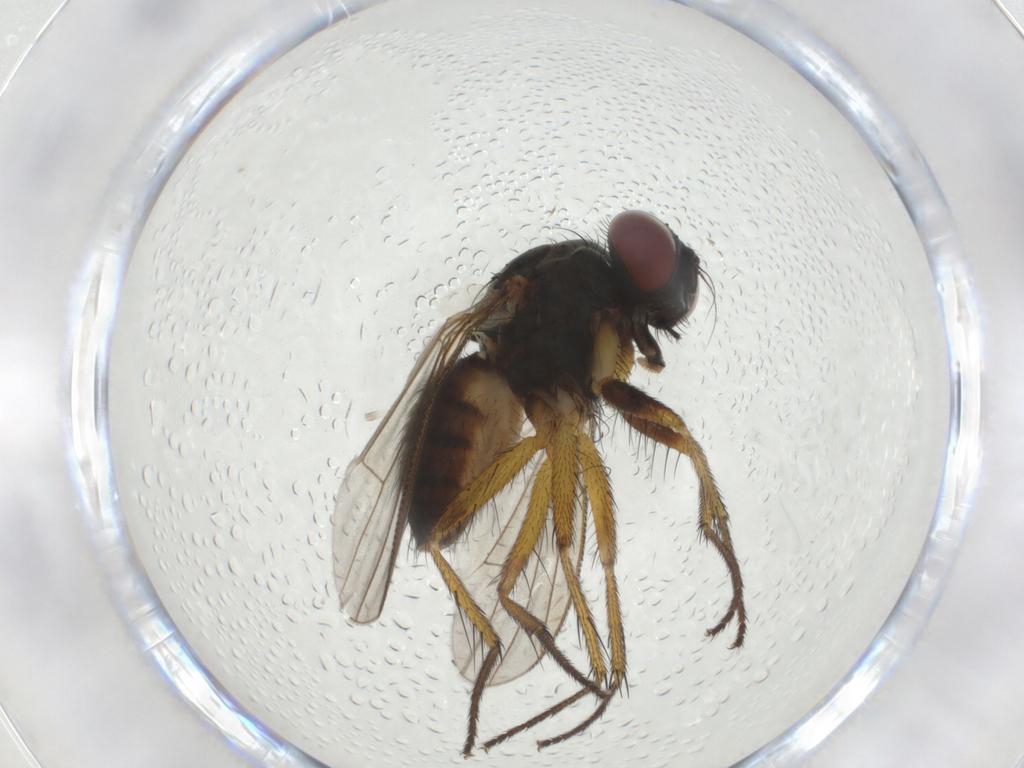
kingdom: Animalia
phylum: Arthropoda
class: Insecta
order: Diptera
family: Muscidae
